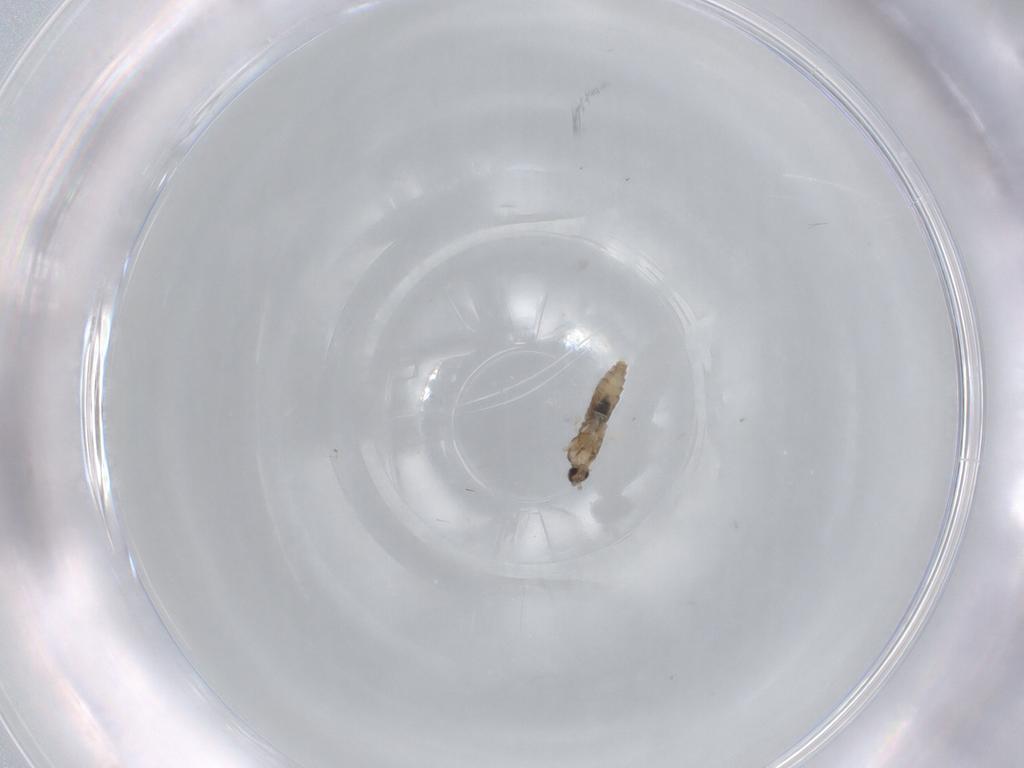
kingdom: Animalia
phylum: Arthropoda
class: Insecta
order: Diptera
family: Cecidomyiidae
